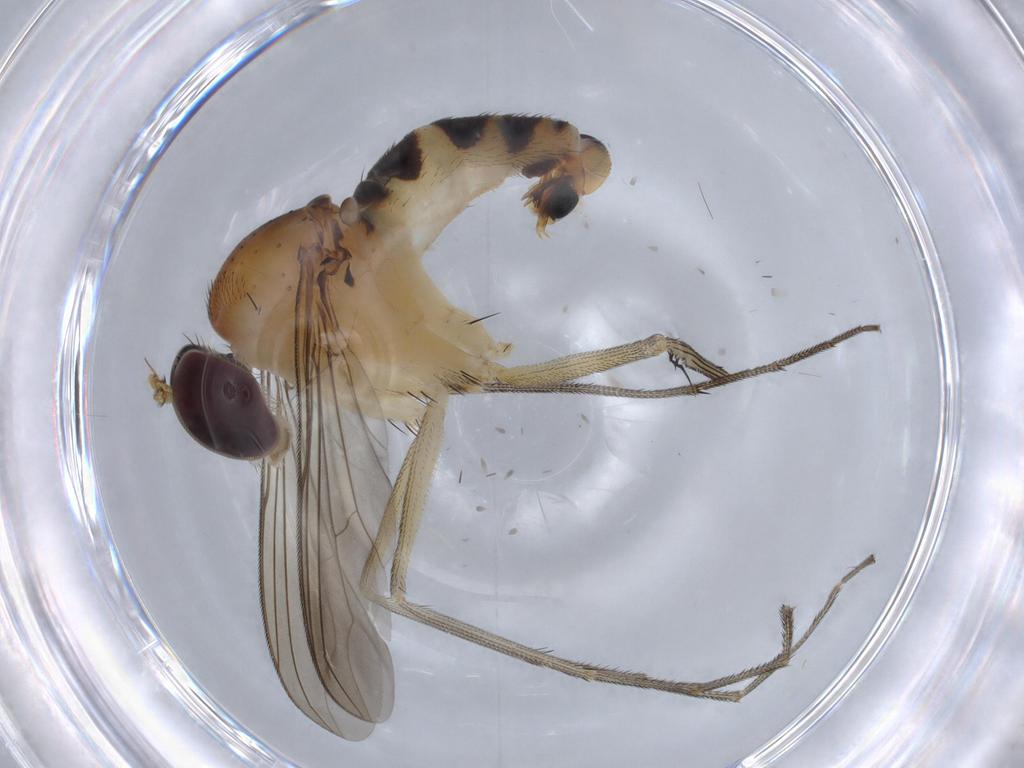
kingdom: Animalia
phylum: Arthropoda
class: Insecta
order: Diptera
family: Dolichopodidae
